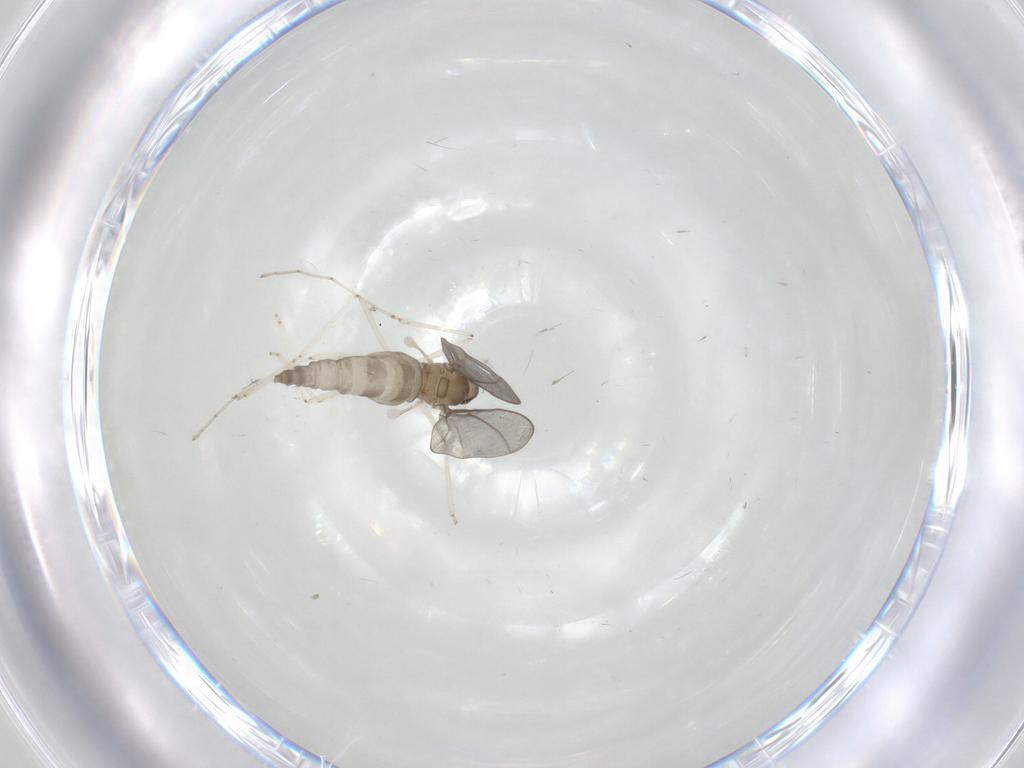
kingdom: Animalia
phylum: Arthropoda
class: Insecta
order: Diptera
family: Cecidomyiidae
